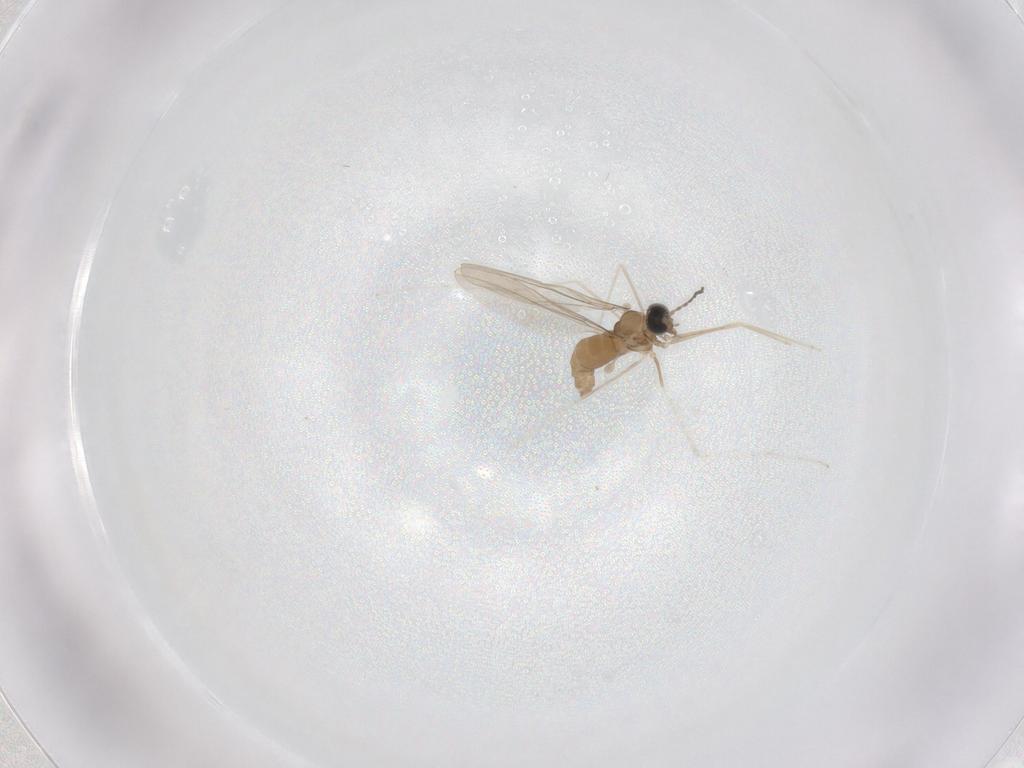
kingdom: Animalia
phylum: Arthropoda
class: Insecta
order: Diptera
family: Cecidomyiidae
